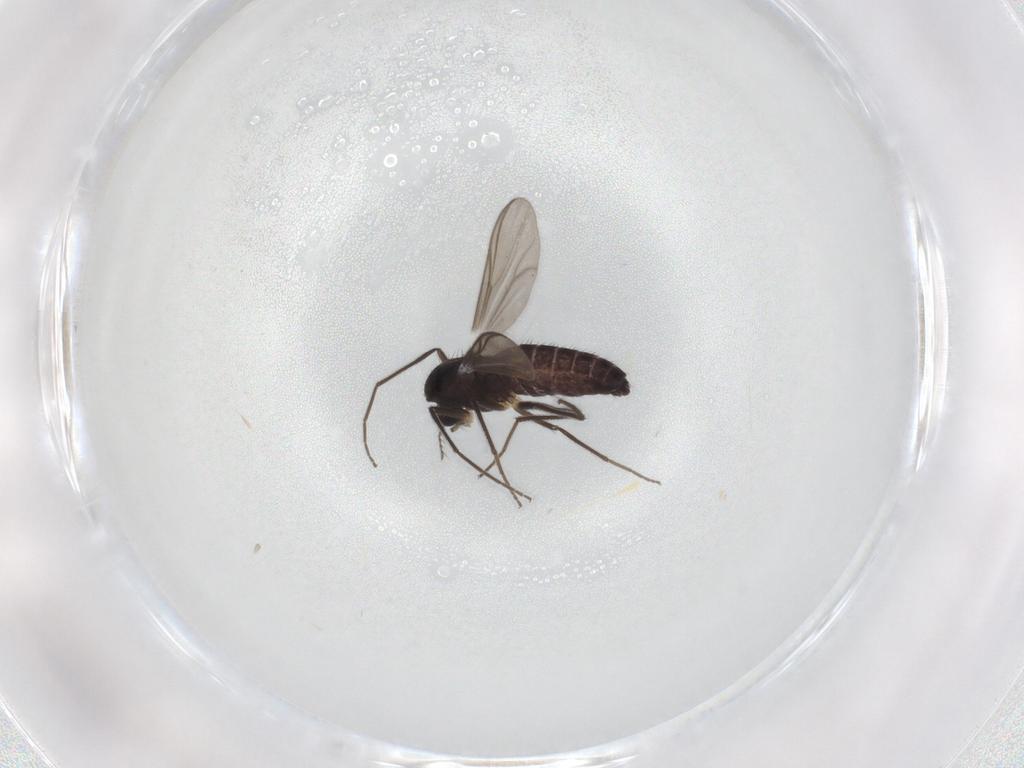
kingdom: Animalia
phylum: Arthropoda
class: Insecta
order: Diptera
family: Chironomidae
